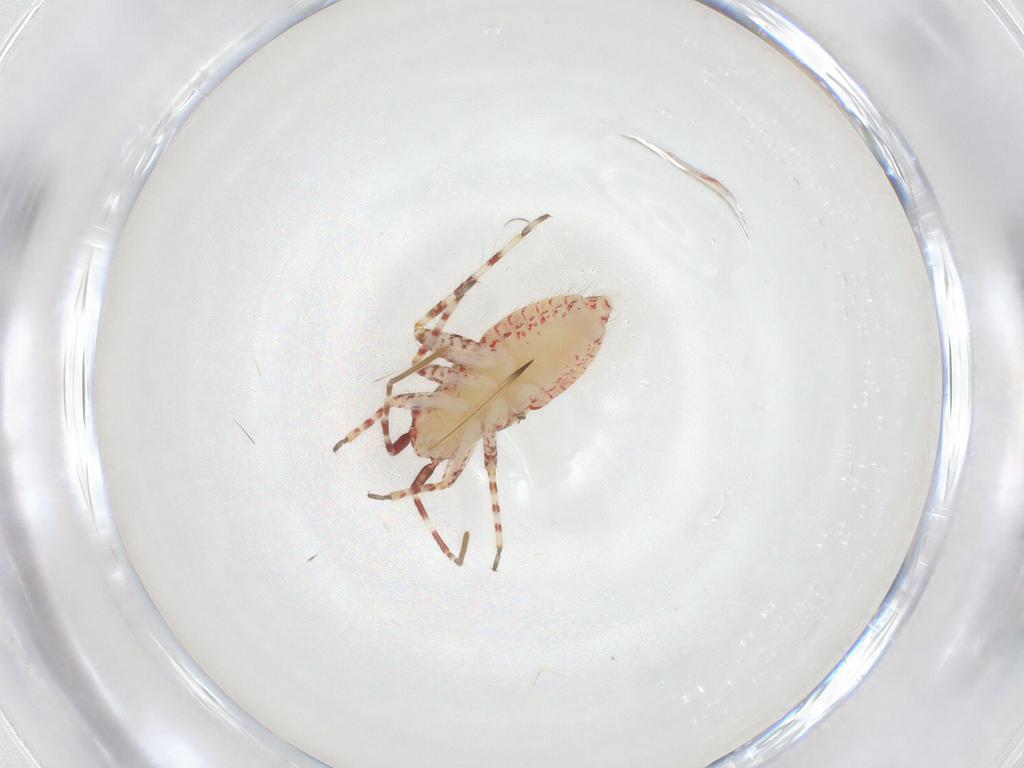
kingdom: Animalia
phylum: Arthropoda
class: Insecta
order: Hemiptera
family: Miridae
